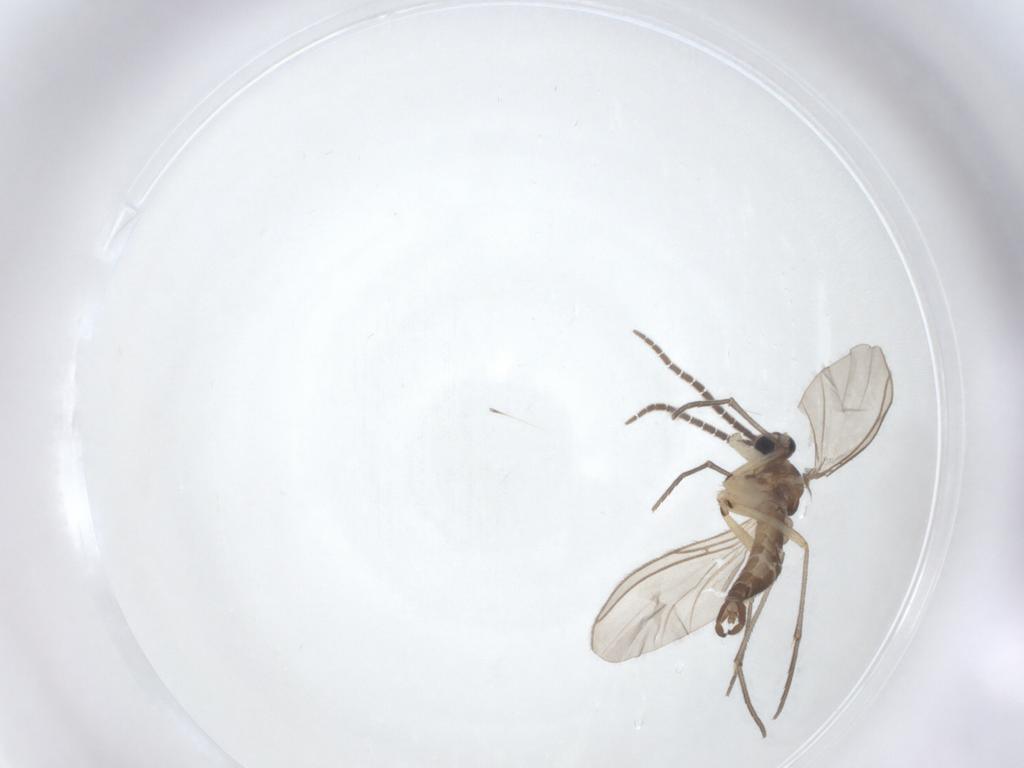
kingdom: Animalia
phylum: Arthropoda
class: Insecta
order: Diptera
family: Sciaridae
